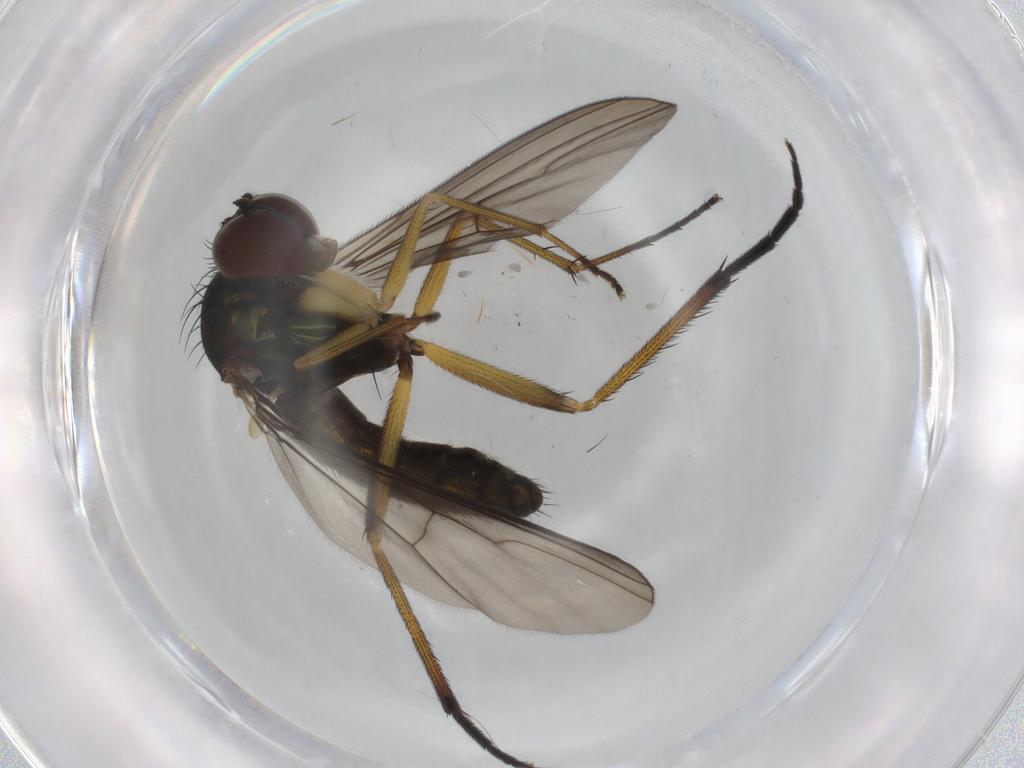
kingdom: Animalia
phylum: Arthropoda
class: Insecta
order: Diptera
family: Dolichopodidae
